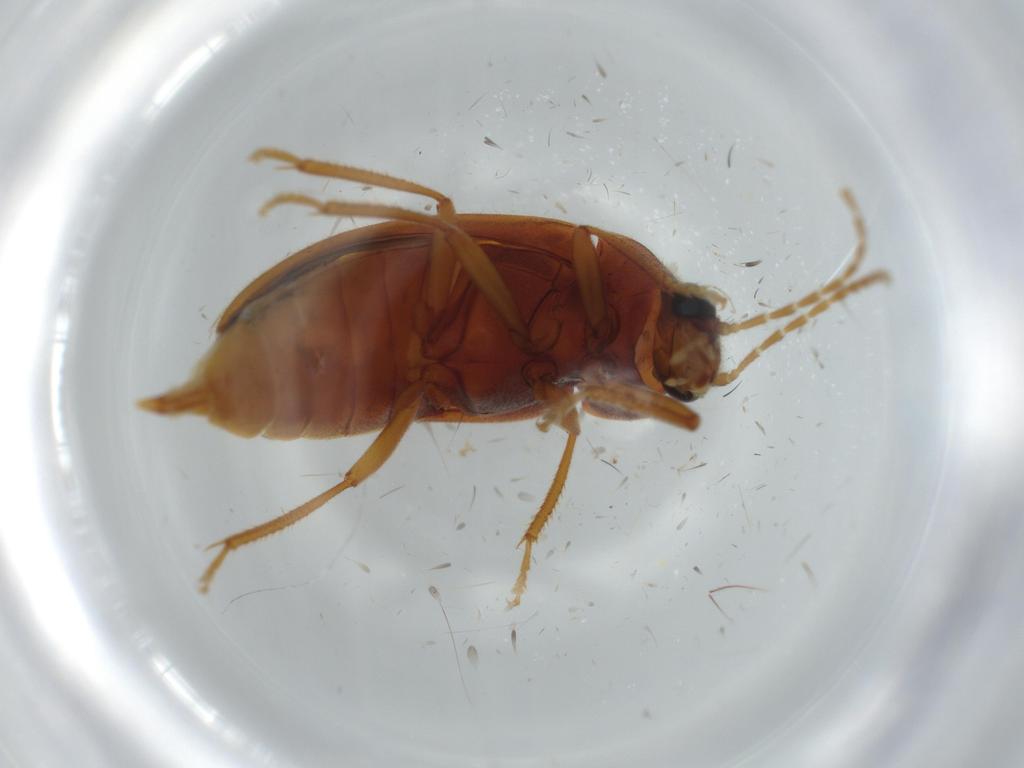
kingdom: Animalia
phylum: Arthropoda
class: Insecta
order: Coleoptera
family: Ptilodactylidae
